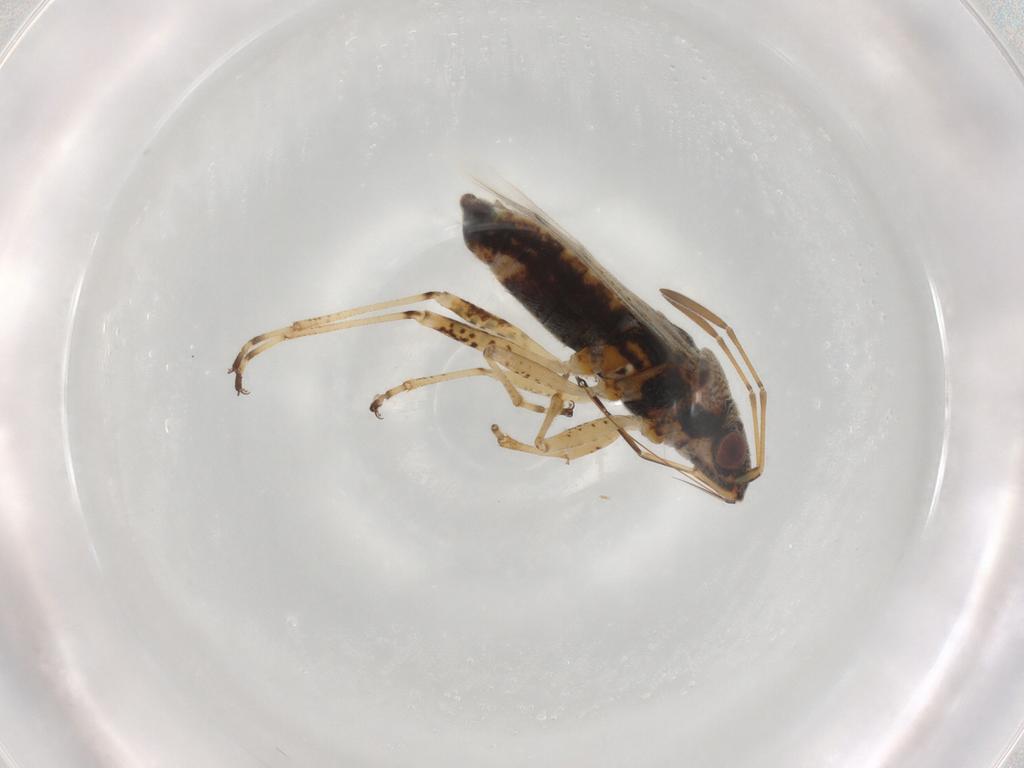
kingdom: Animalia
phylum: Arthropoda
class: Insecta
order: Hemiptera
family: Lygaeidae
